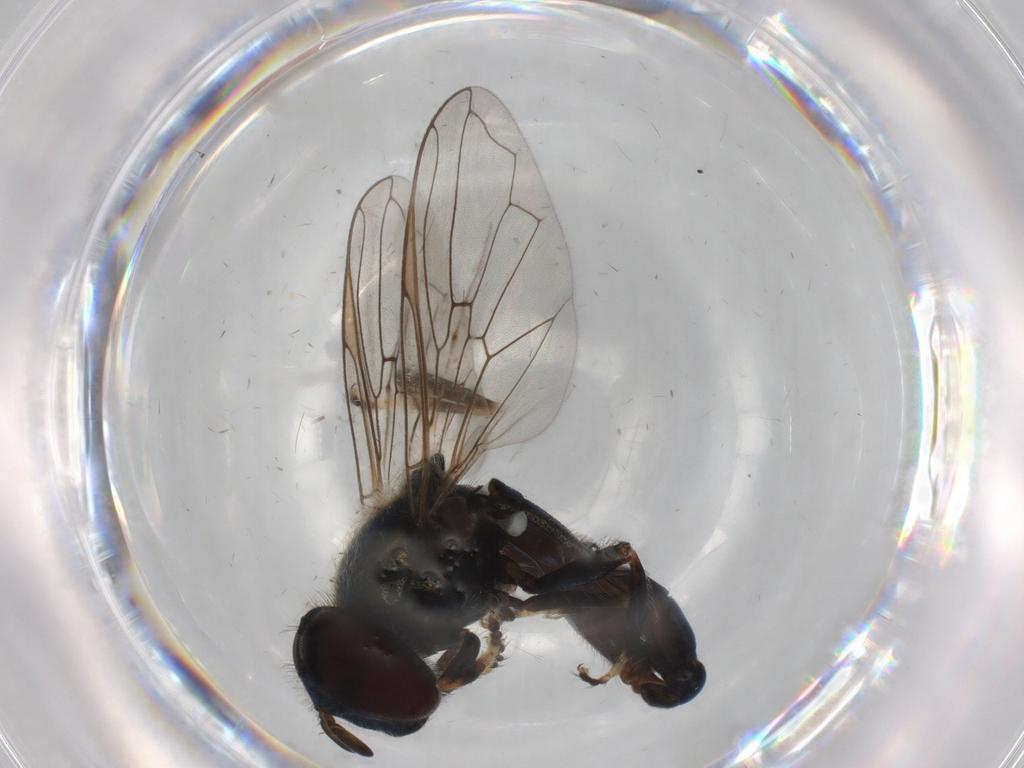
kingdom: Animalia
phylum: Arthropoda
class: Insecta
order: Diptera
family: Syrphidae
